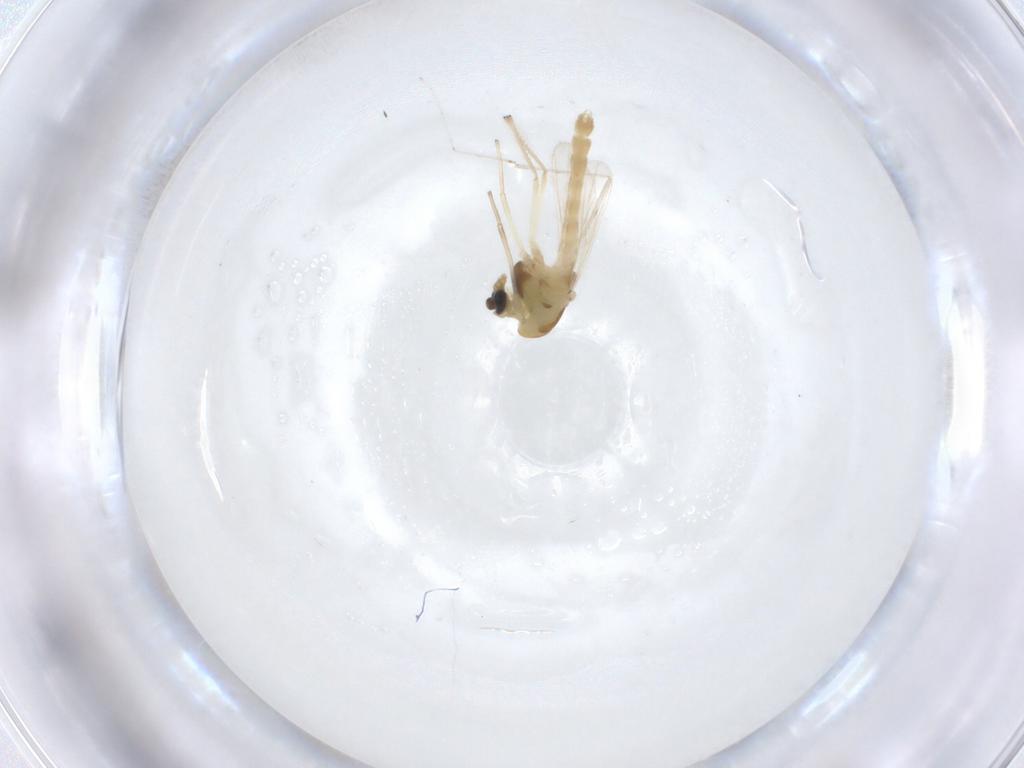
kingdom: Animalia
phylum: Arthropoda
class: Insecta
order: Diptera
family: Chironomidae
